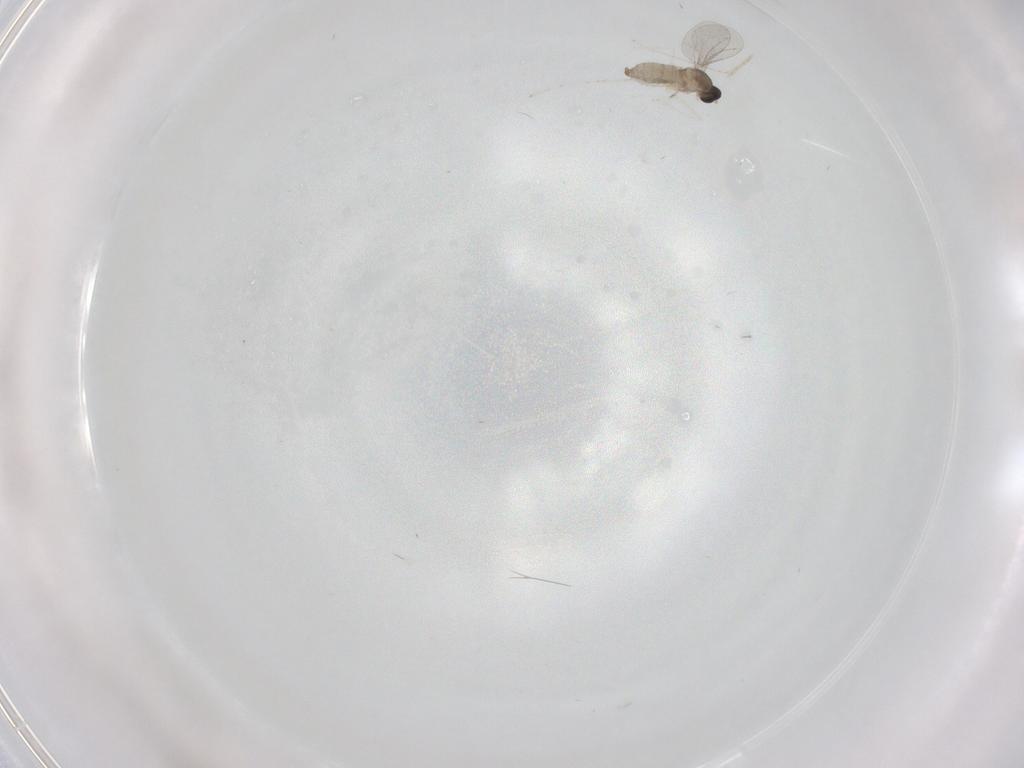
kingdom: Animalia
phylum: Arthropoda
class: Insecta
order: Diptera
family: Cecidomyiidae
